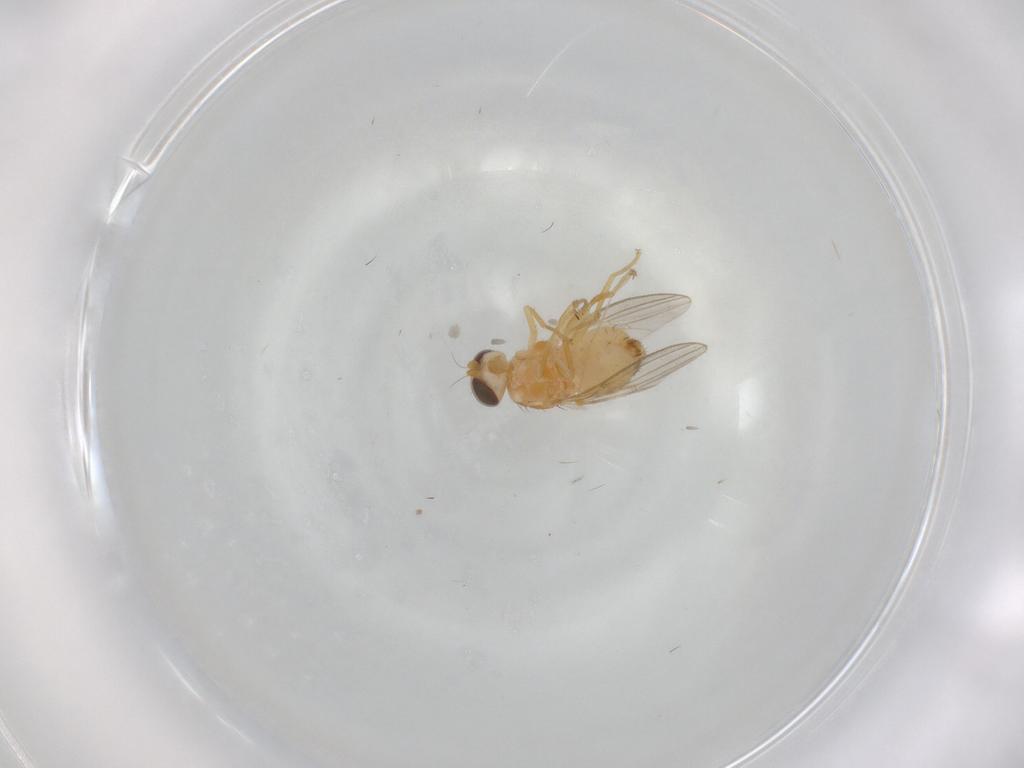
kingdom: Animalia
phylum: Arthropoda
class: Insecta
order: Diptera
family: Chyromyidae
